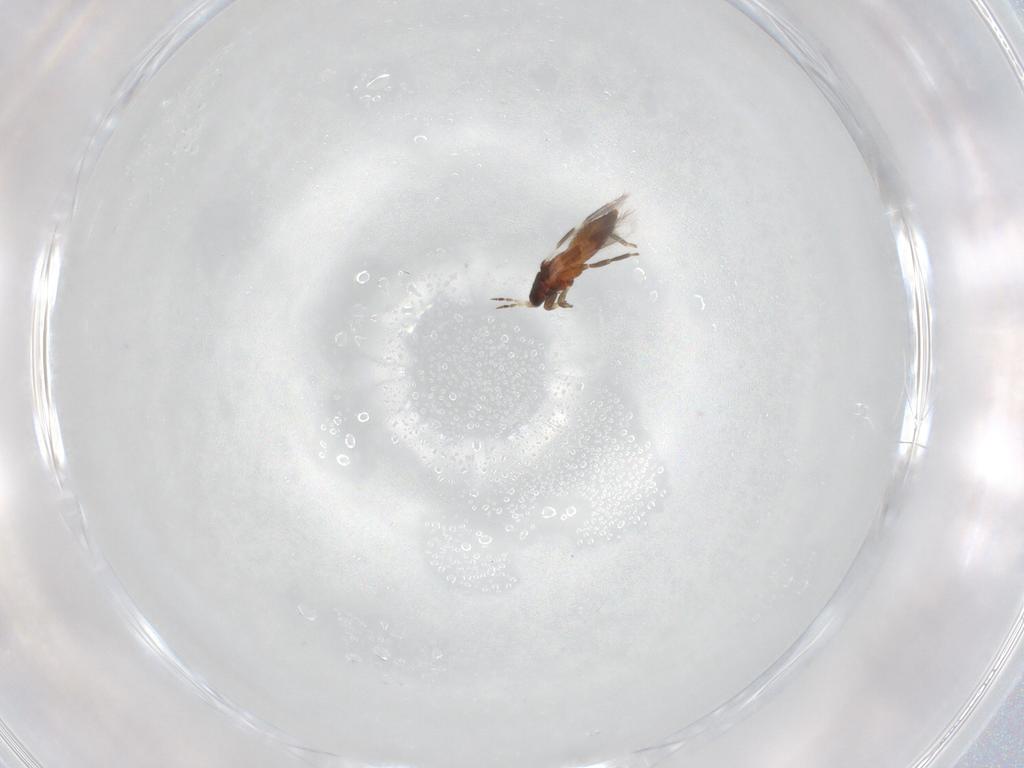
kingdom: Animalia
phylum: Arthropoda
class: Insecta
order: Thysanoptera
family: Aeolothripidae
